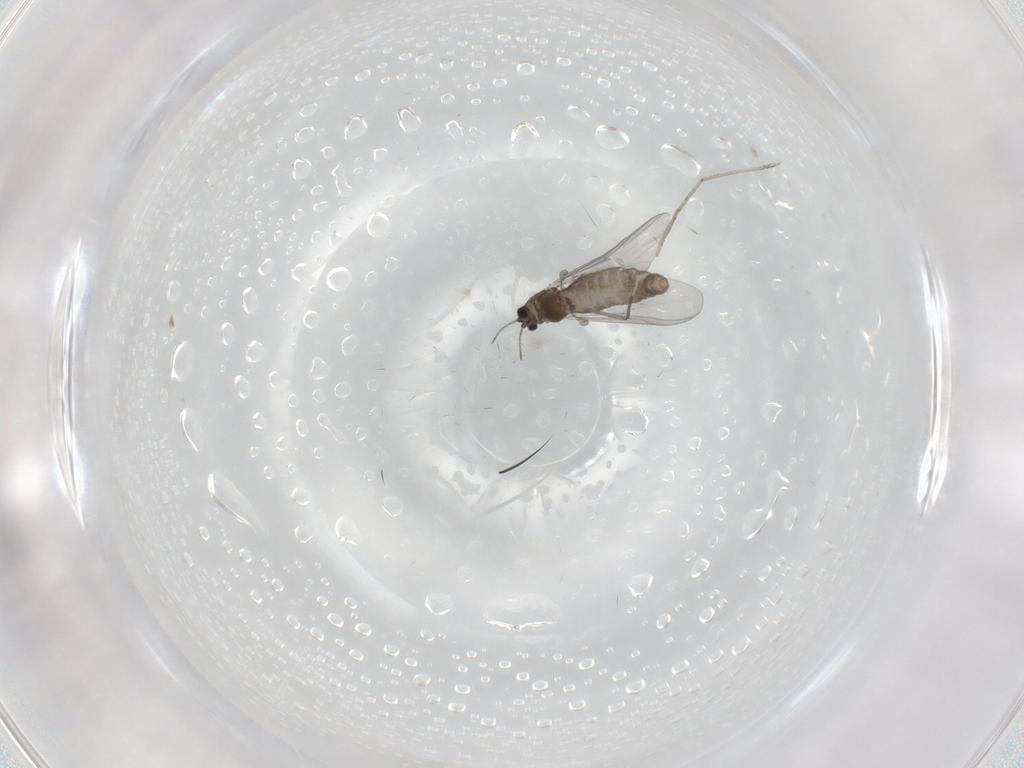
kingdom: Animalia
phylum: Arthropoda
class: Insecta
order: Diptera
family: Chironomidae
